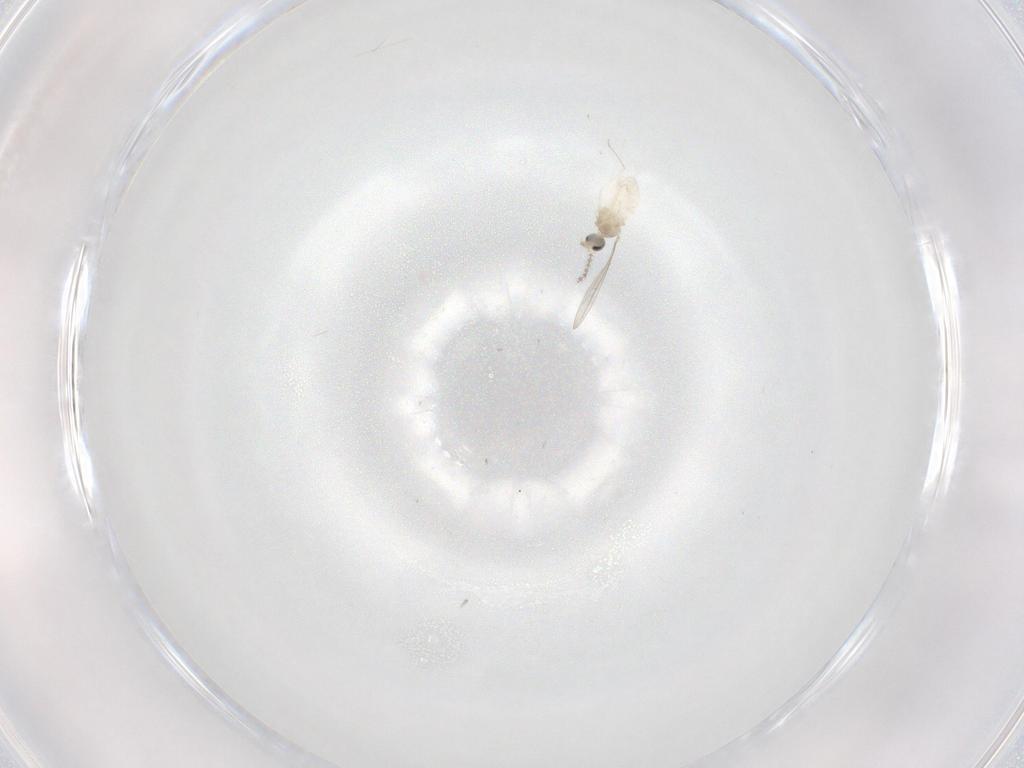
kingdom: Animalia
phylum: Arthropoda
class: Insecta
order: Diptera
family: Cecidomyiidae
